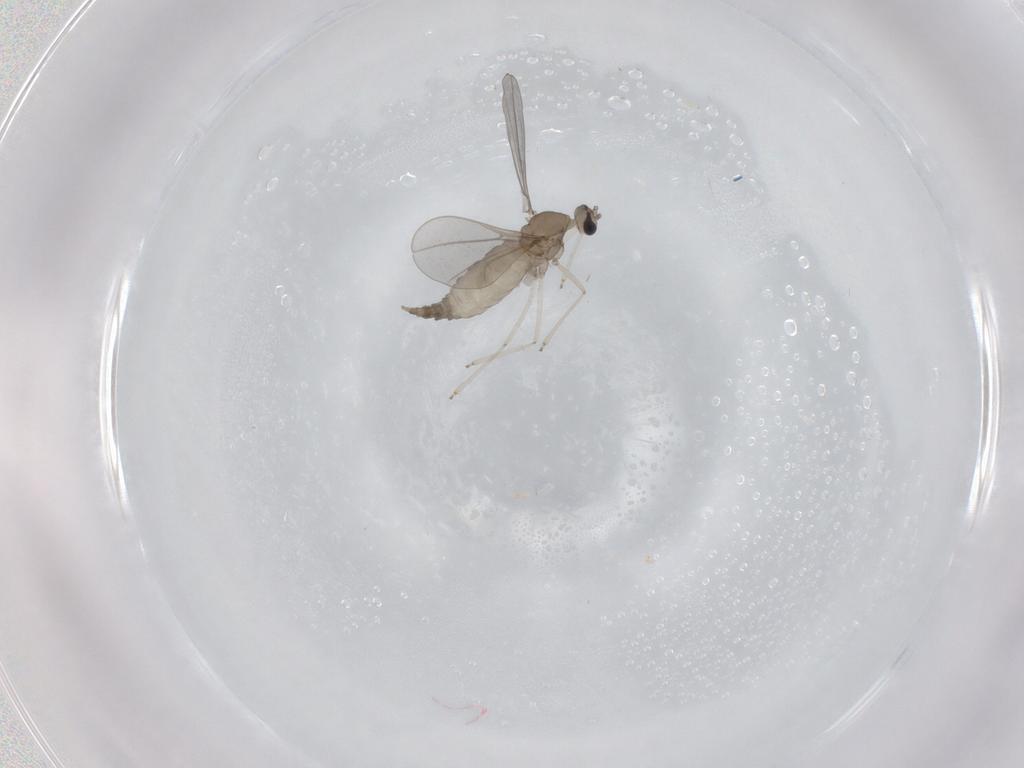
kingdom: Animalia
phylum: Arthropoda
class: Insecta
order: Diptera
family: Cecidomyiidae
